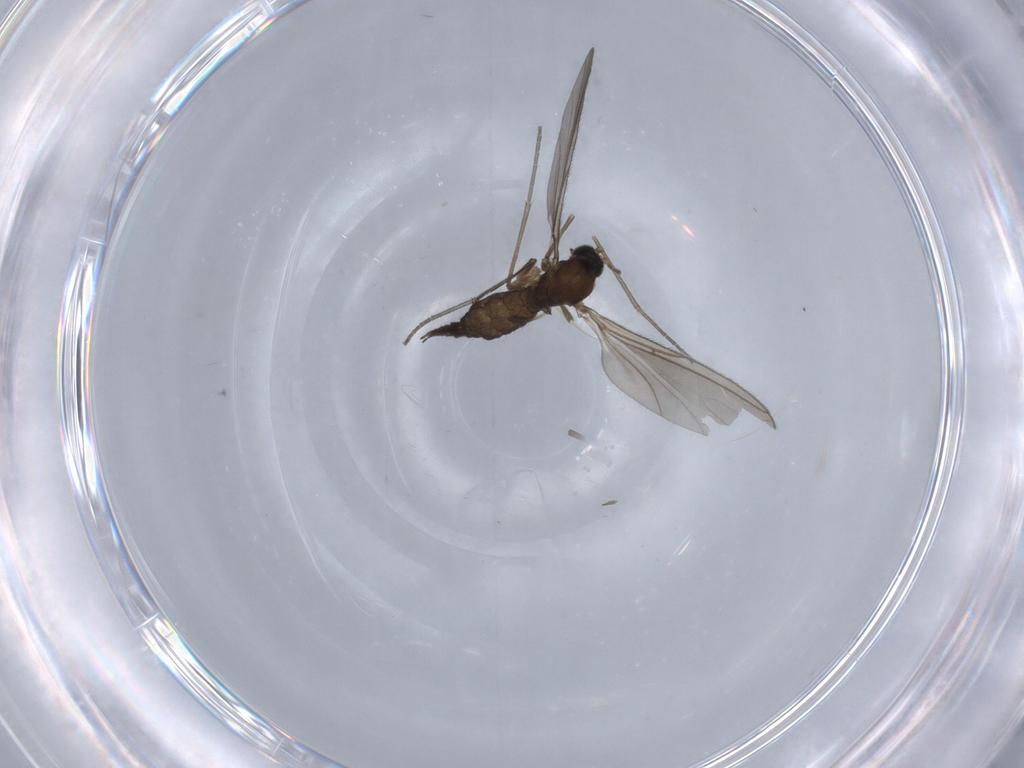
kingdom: Animalia
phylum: Arthropoda
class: Insecta
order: Diptera
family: Sciaridae
